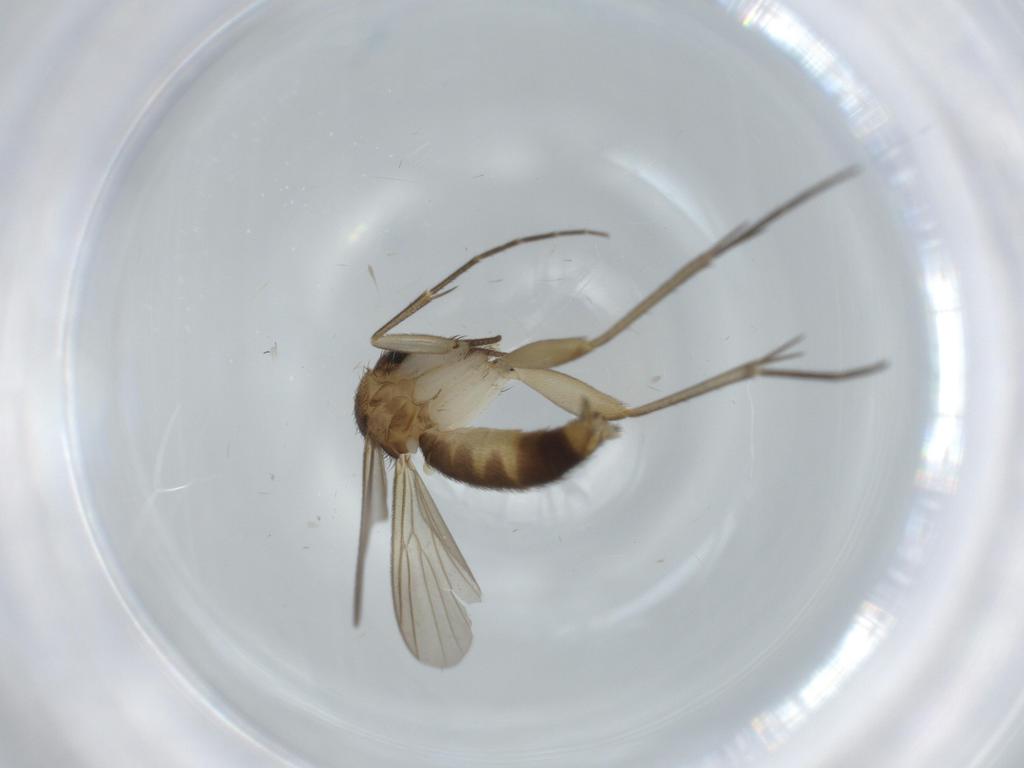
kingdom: Animalia
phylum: Arthropoda
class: Insecta
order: Diptera
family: Mycetophilidae
